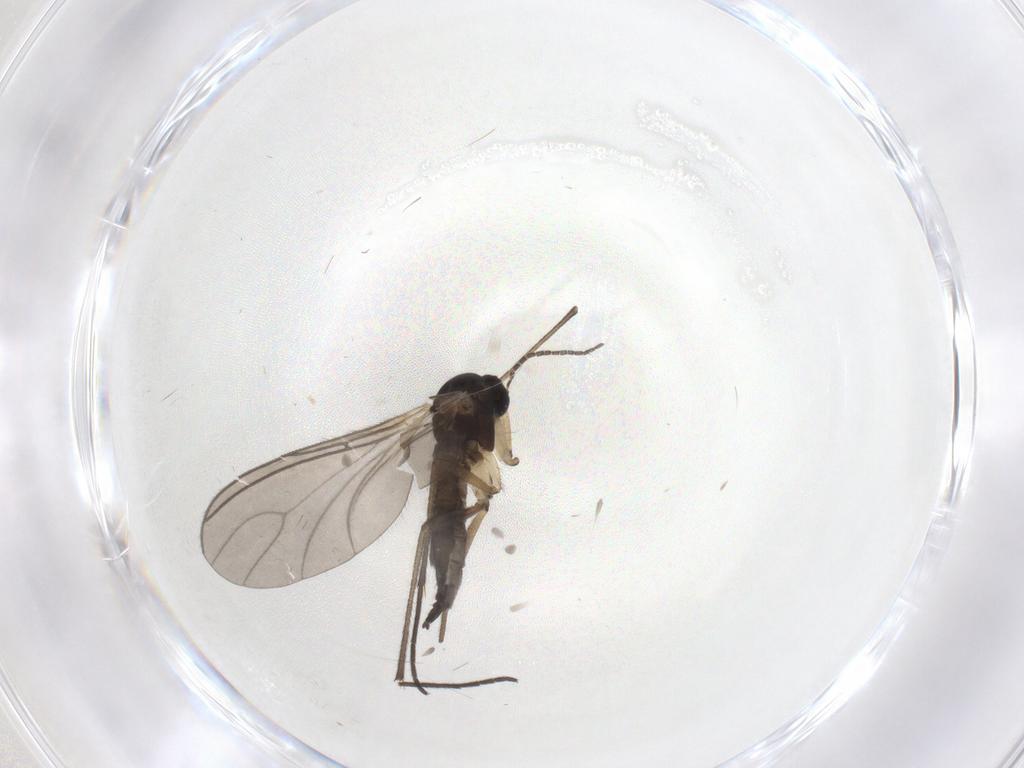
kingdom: Animalia
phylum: Arthropoda
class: Insecta
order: Diptera
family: Sciaridae
